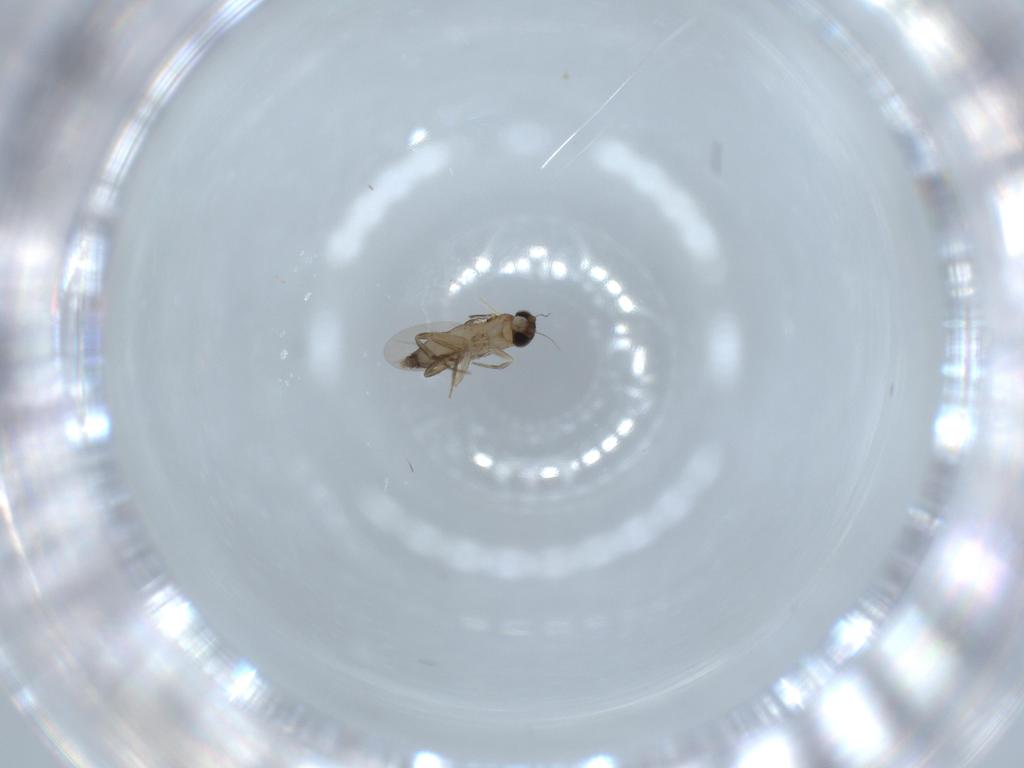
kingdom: Animalia
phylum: Arthropoda
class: Insecta
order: Diptera
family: Phoridae
